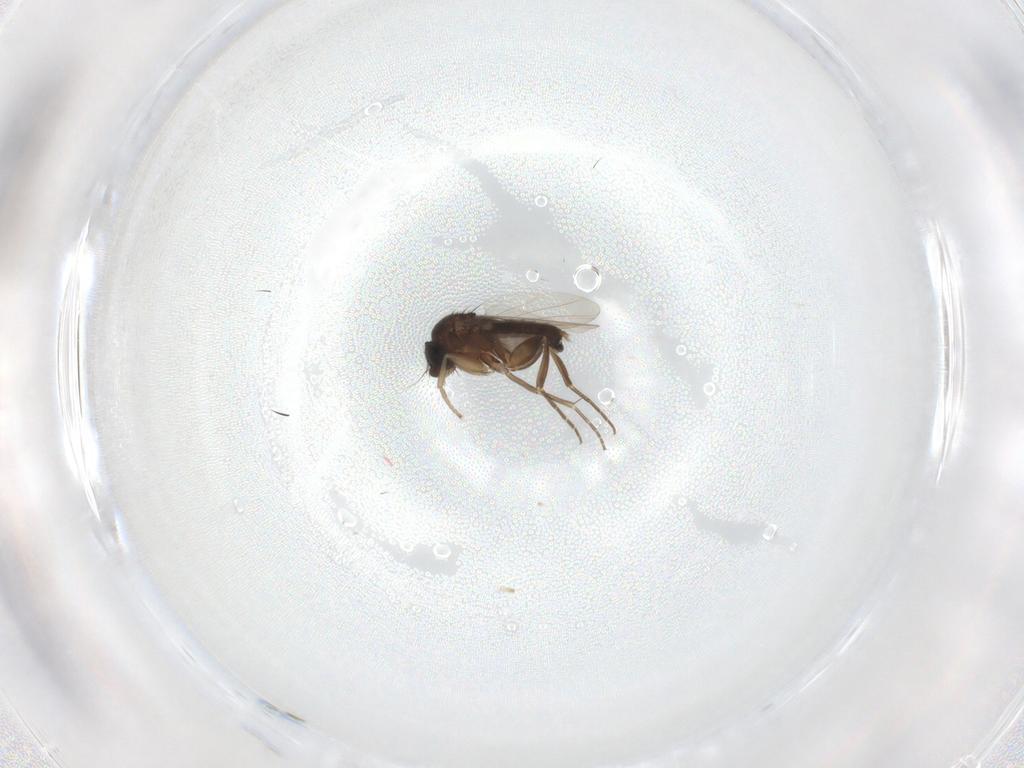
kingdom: Animalia
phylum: Arthropoda
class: Insecta
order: Diptera
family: Phoridae
